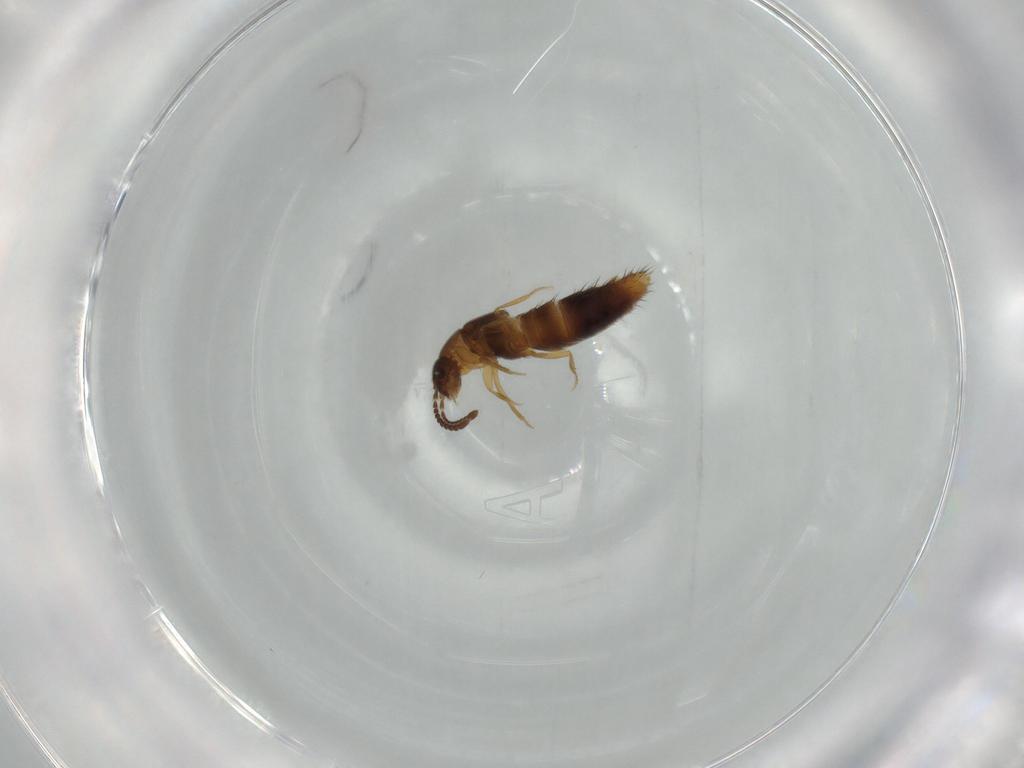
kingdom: Animalia
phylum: Arthropoda
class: Insecta
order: Coleoptera
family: Staphylinidae
